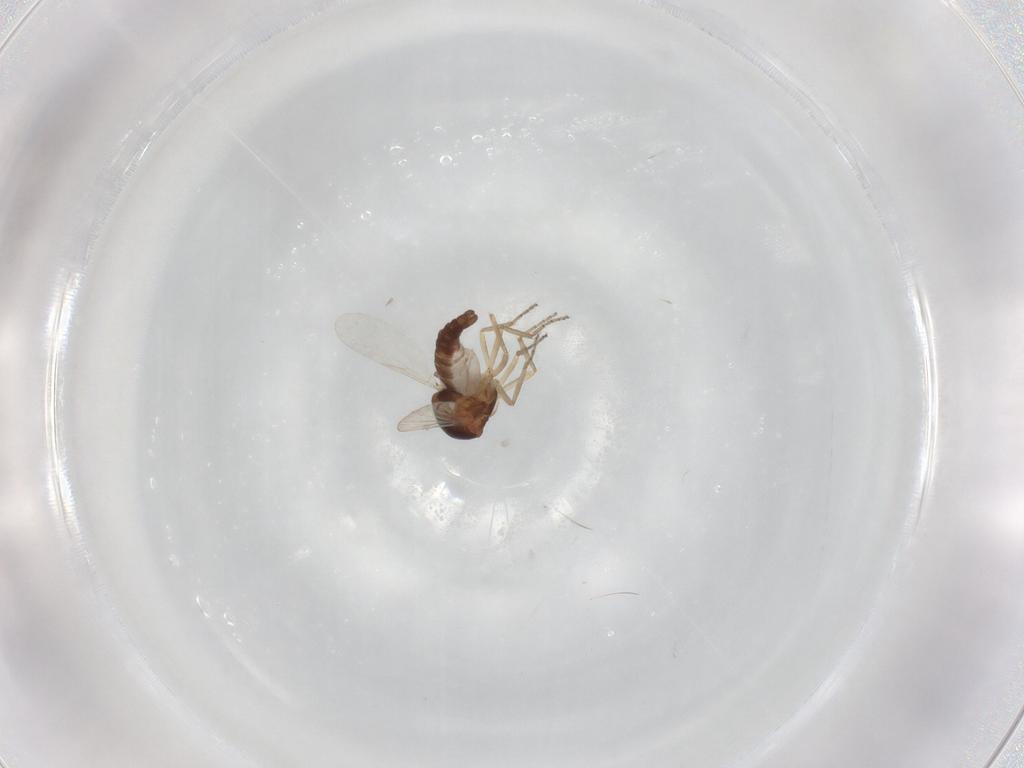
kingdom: Animalia
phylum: Arthropoda
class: Insecta
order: Diptera
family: Ceratopogonidae
